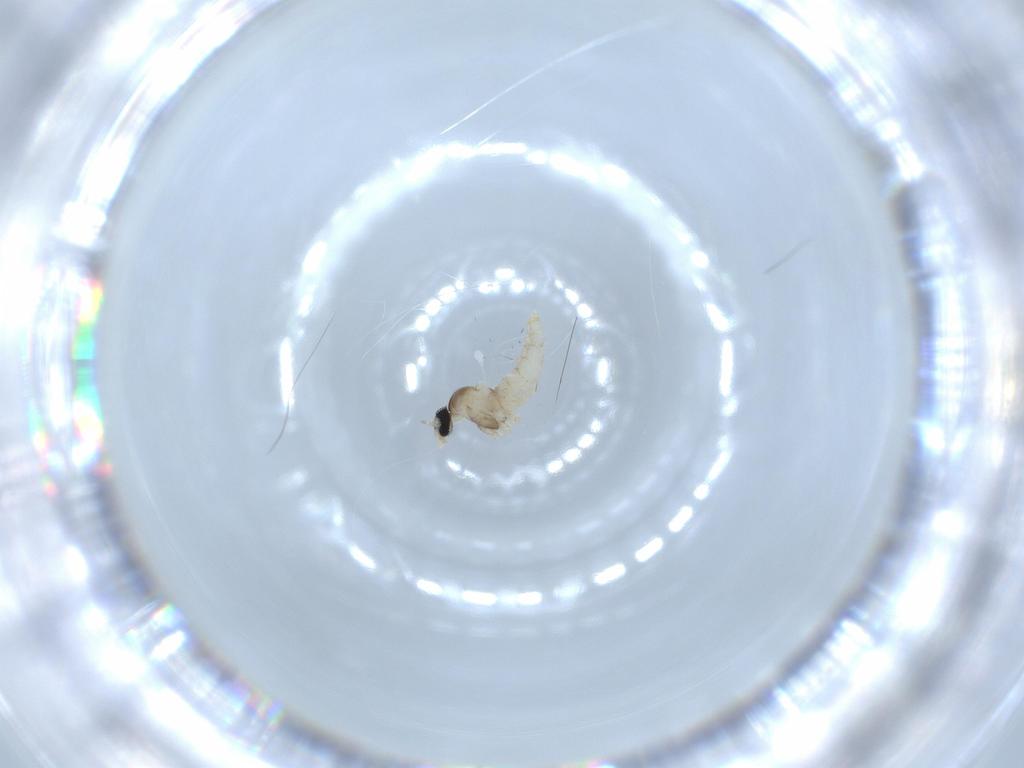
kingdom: Animalia
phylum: Arthropoda
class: Insecta
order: Diptera
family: Cecidomyiidae
